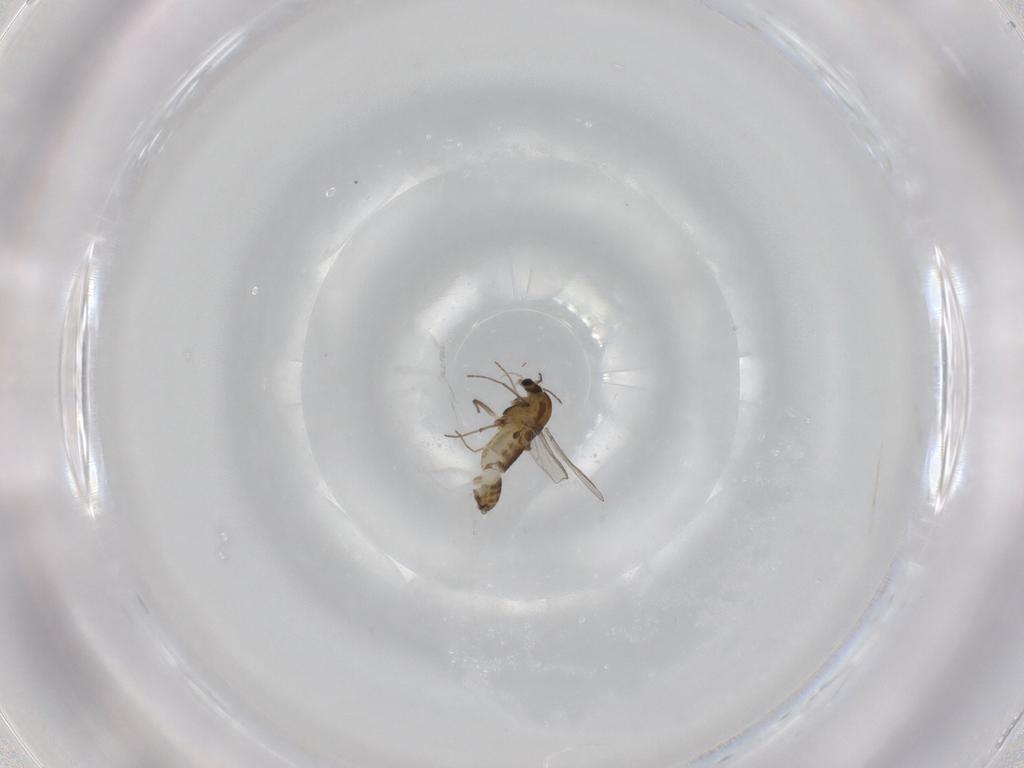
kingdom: Animalia
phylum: Arthropoda
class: Insecta
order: Diptera
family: Chironomidae
